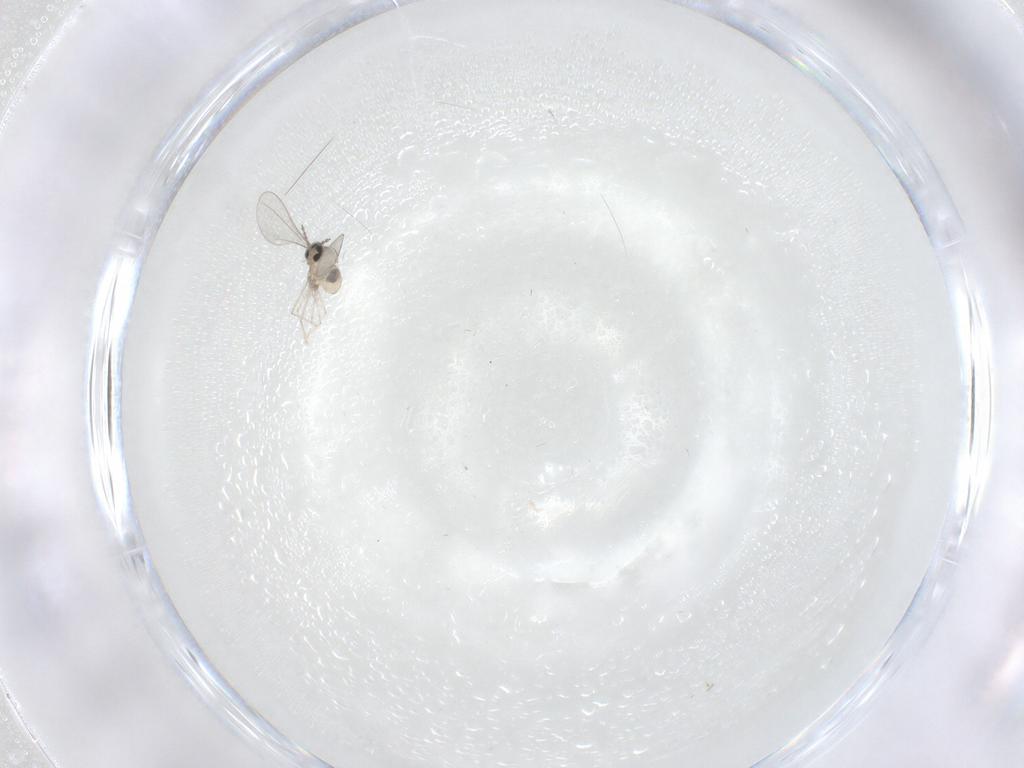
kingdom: Animalia
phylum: Arthropoda
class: Insecta
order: Diptera
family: Cecidomyiidae
